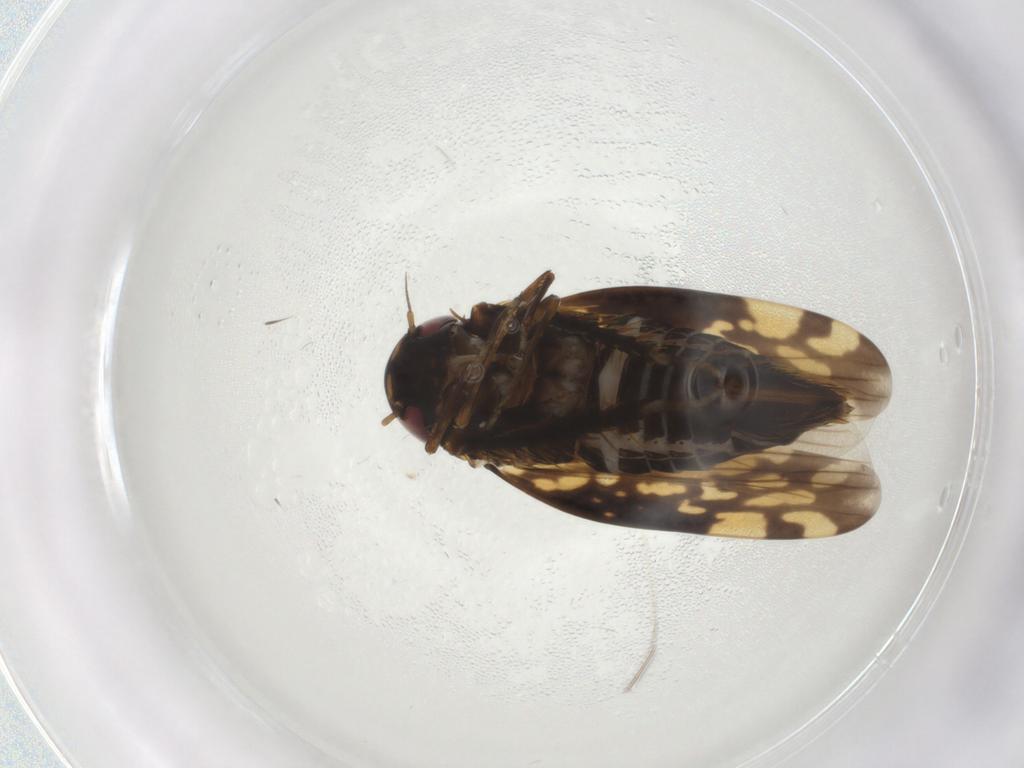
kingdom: Animalia
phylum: Arthropoda
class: Insecta
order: Hemiptera
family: Cicadellidae
